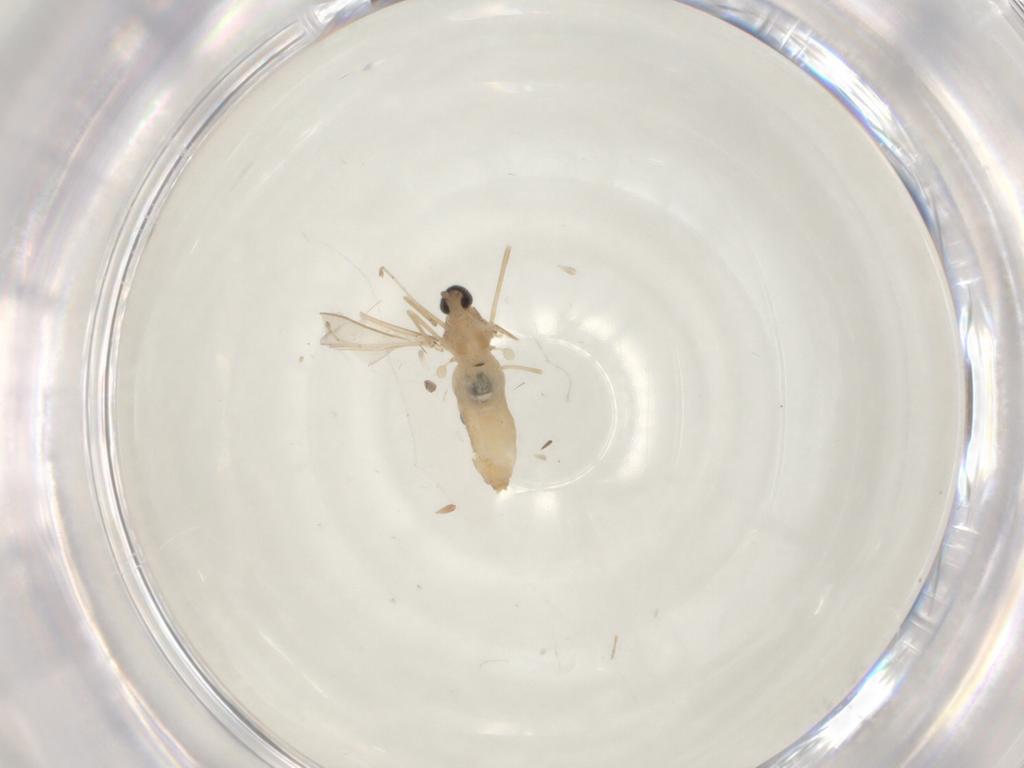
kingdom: Animalia
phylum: Arthropoda
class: Insecta
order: Diptera
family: Cecidomyiidae
